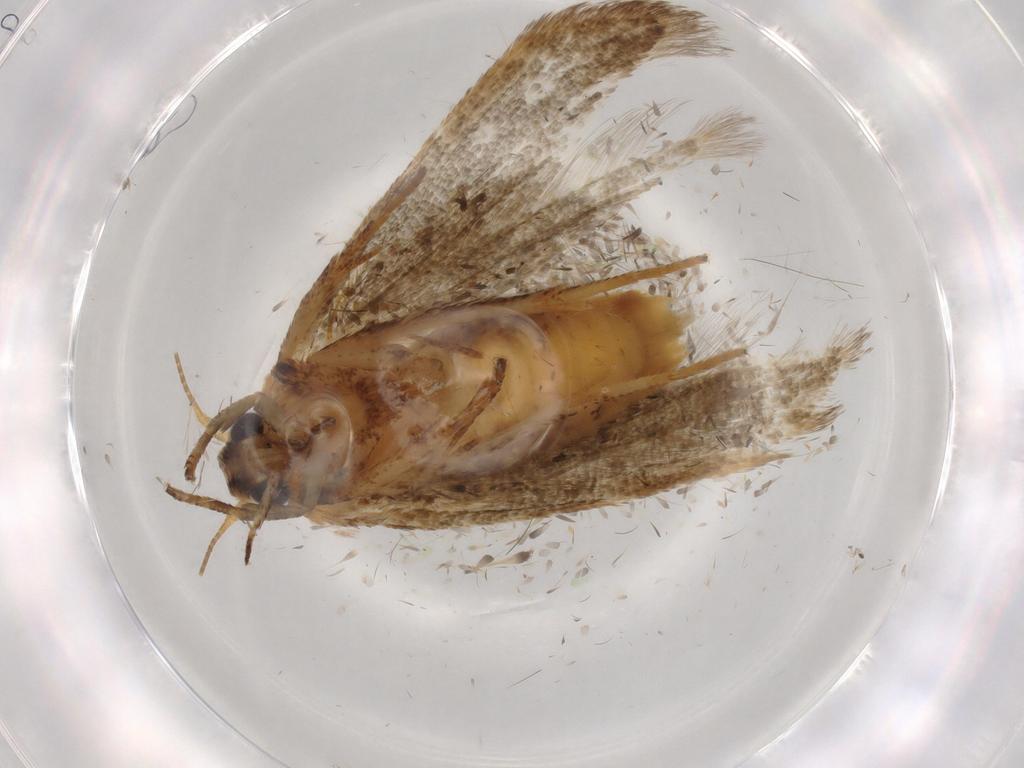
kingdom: Animalia
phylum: Arthropoda
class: Insecta
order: Lepidoptera
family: Blastobasidae
